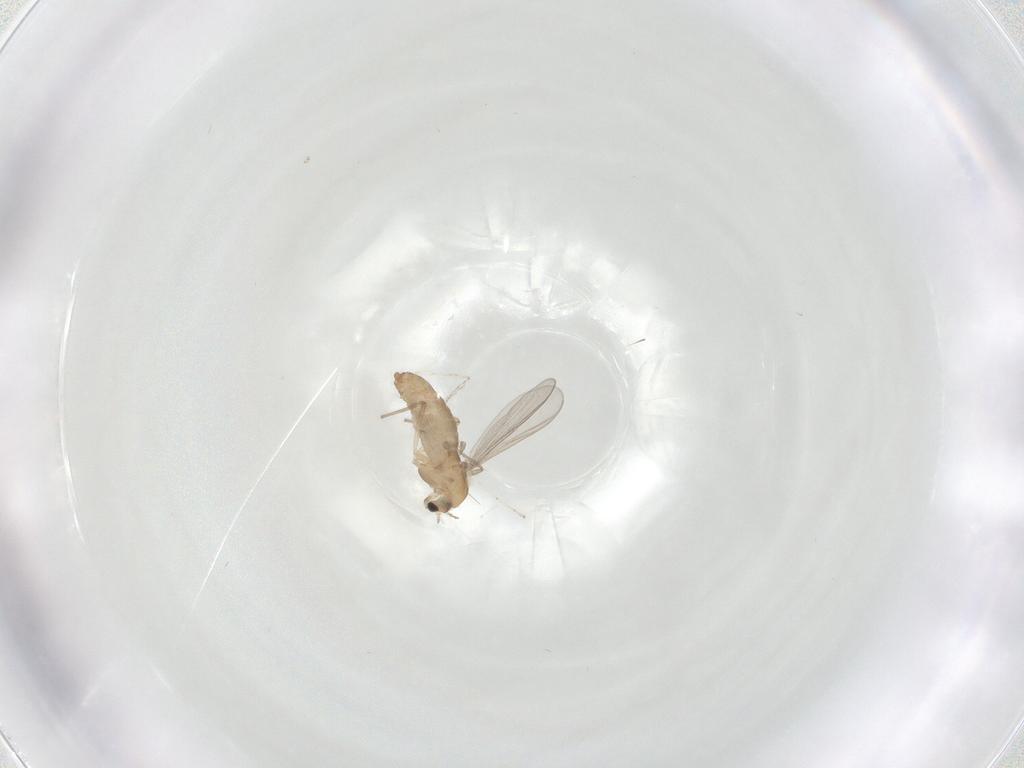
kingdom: Animalia
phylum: Arthropoda
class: Insecta
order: Diptera
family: Chironomidae
